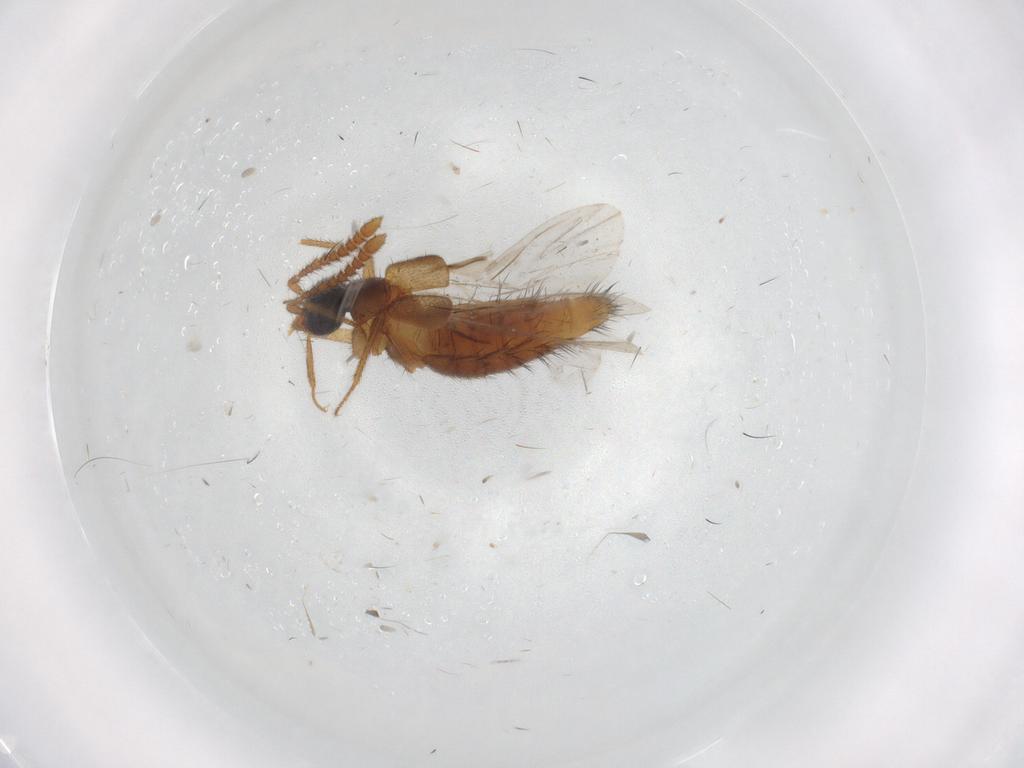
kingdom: Animalia
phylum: Arthropoda
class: Insecta
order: Coleoptera
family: Staphylinidae
